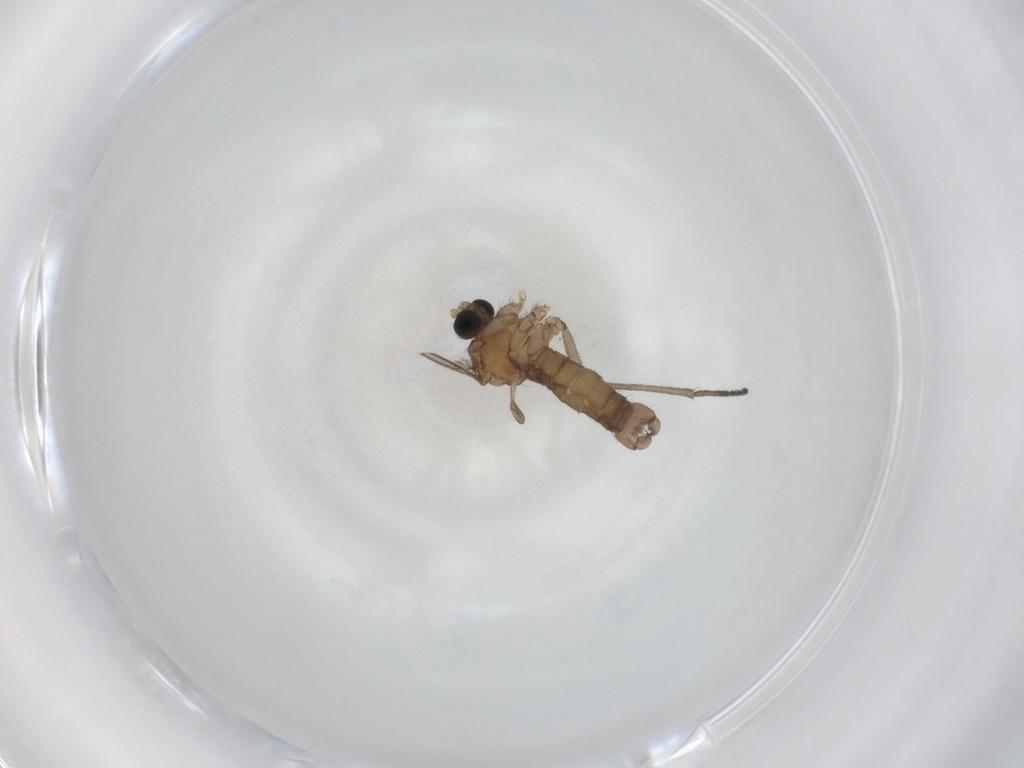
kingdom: Animalia
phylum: Arthropoda
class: Insecta
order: Diptera
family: Sciaridae
